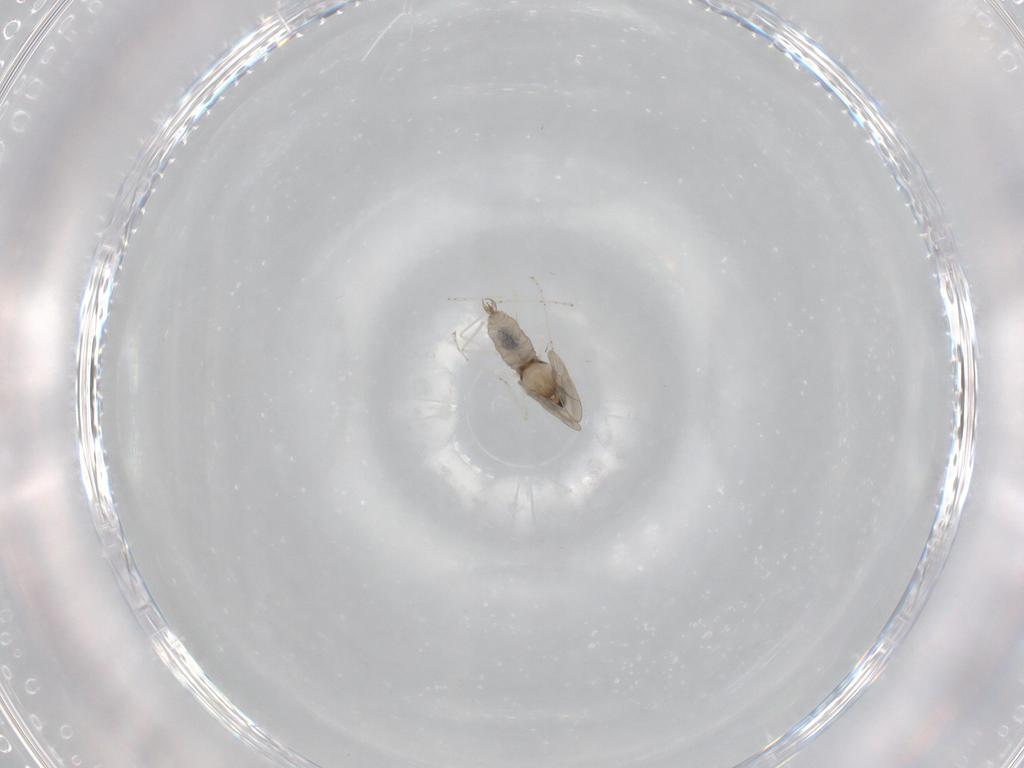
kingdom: Animalia
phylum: Arthropoda
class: Insecta
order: Diptera
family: Cecidomyiidae
